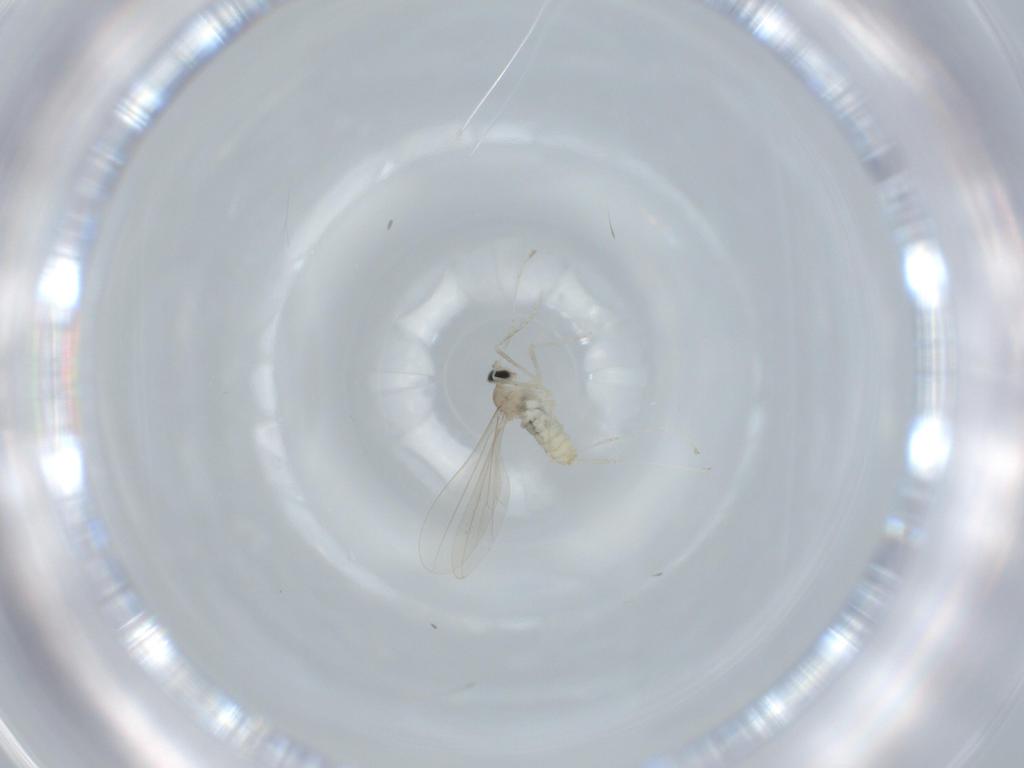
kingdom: Animalia
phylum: Arthropoda
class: Insecta
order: Diptera
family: Cecidomyiidae
